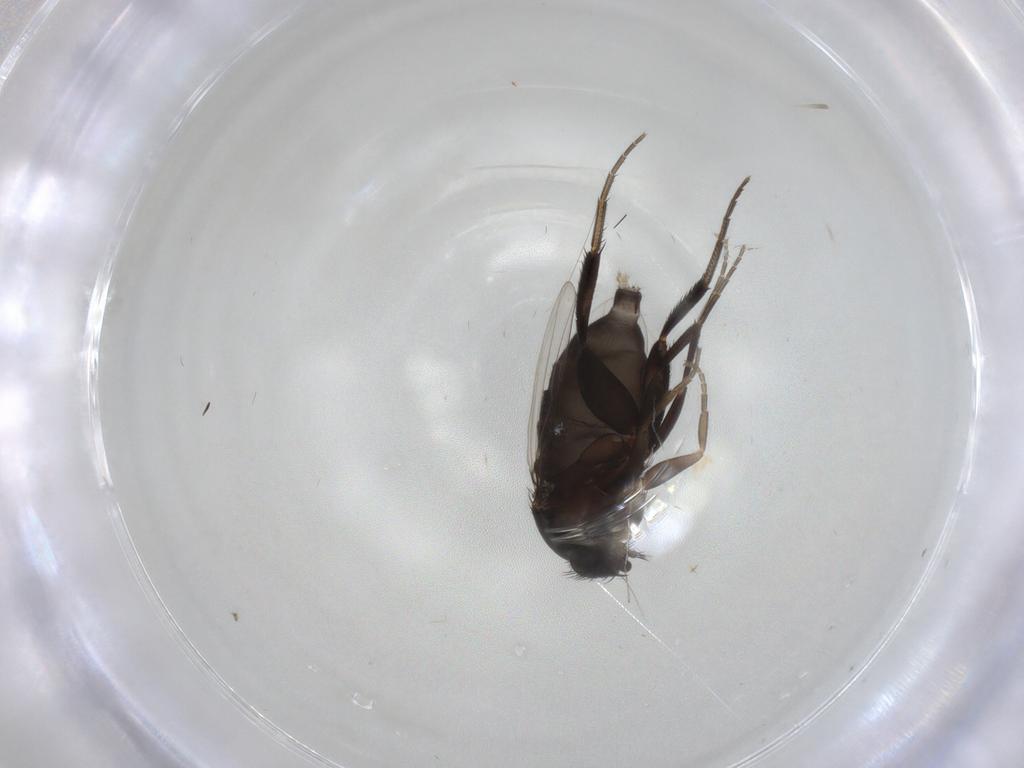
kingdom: Animalia
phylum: Arthropoda
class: Insecta
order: Diptera
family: Phoridae
